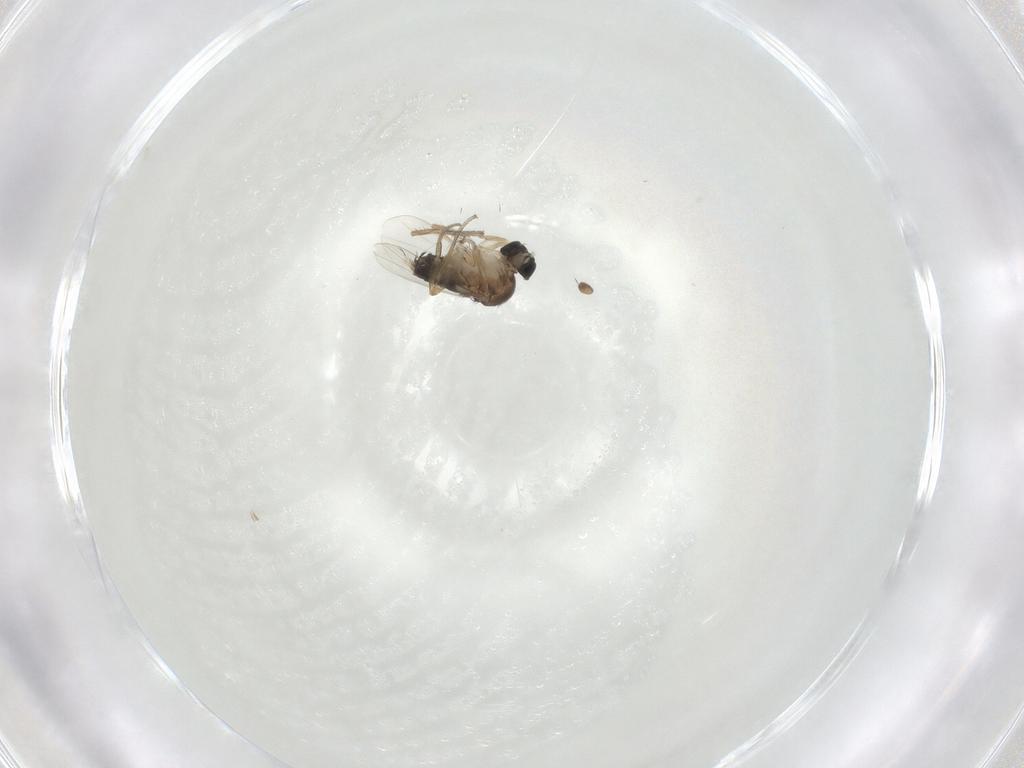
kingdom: Animalia
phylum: Arthropoda
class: Insecta
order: Diptera
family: Phoridae
